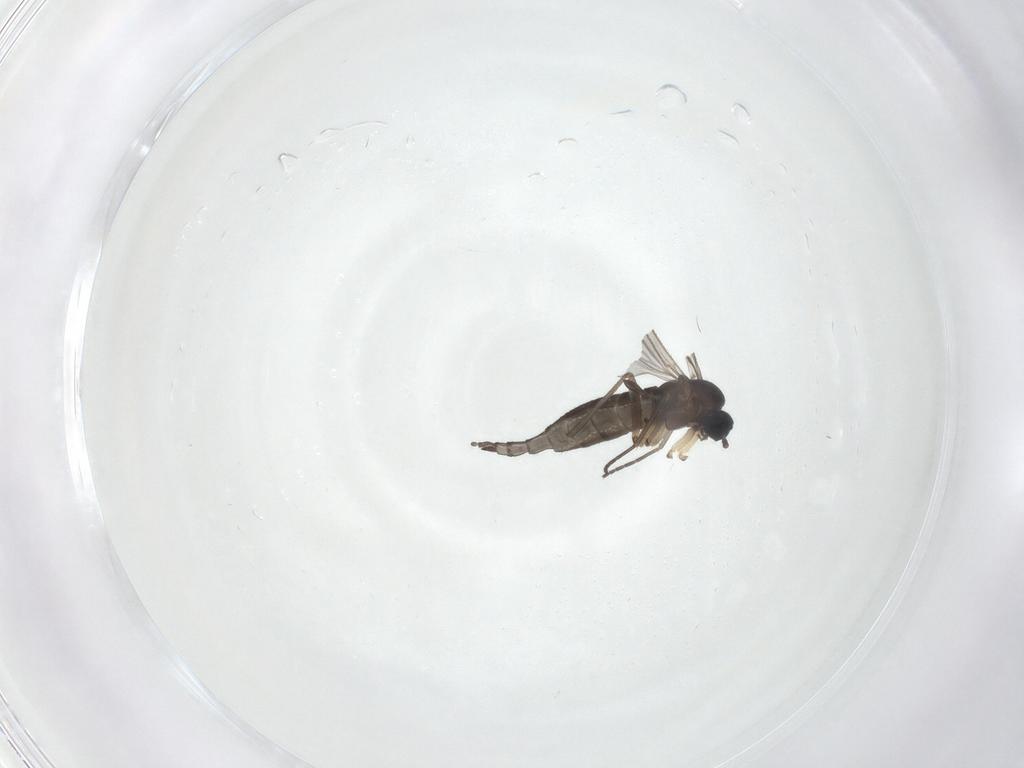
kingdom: Animalia
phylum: Arthropoda
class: Insecta
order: Diptera
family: Sciaridae
